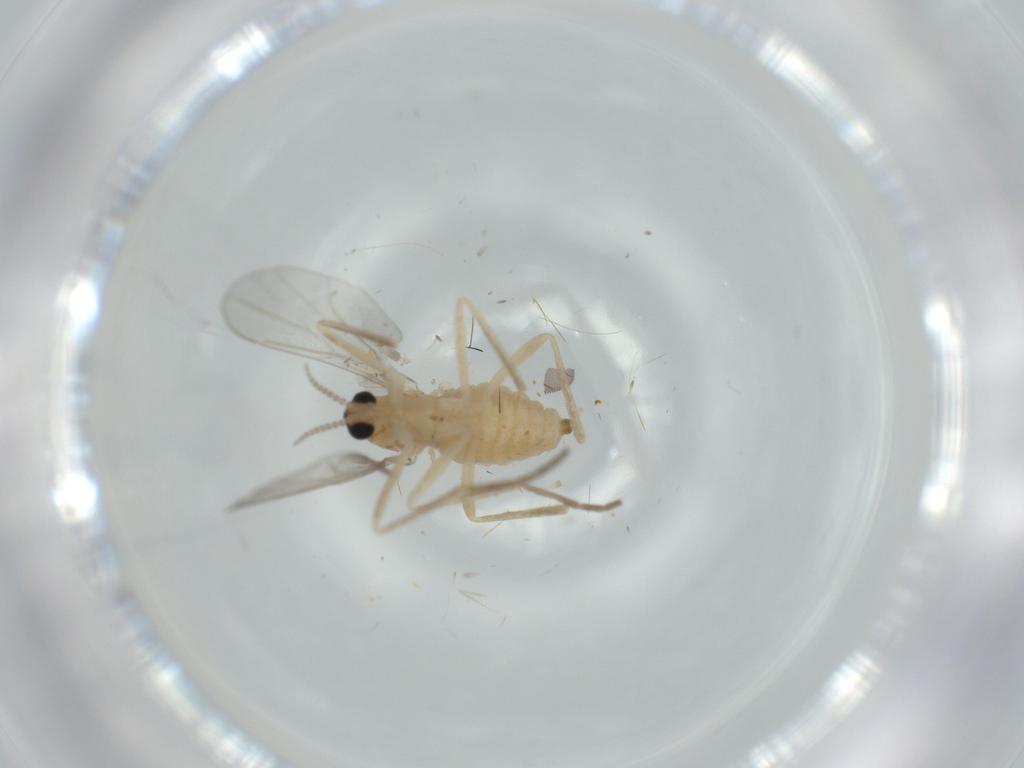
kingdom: Animalia
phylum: Arthropoda
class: Insecta
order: Diptera
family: Cecidomyiidae
